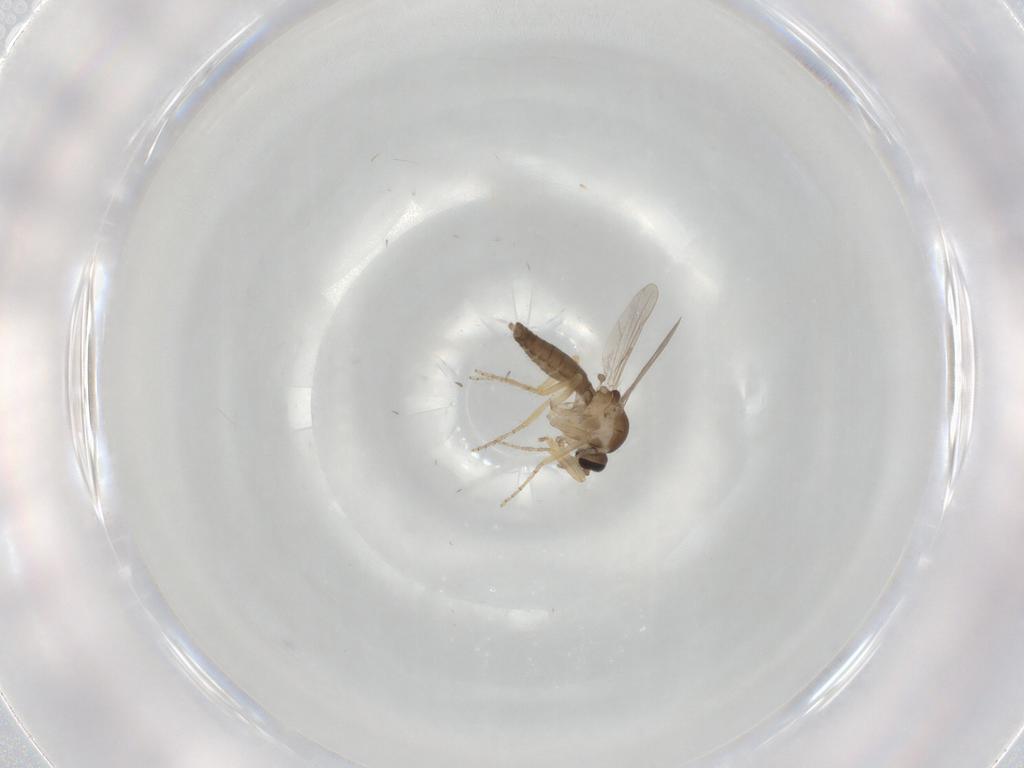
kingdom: Animalia
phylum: Arthropoda
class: Insecta
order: Diptera
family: Ceratopogonidae
